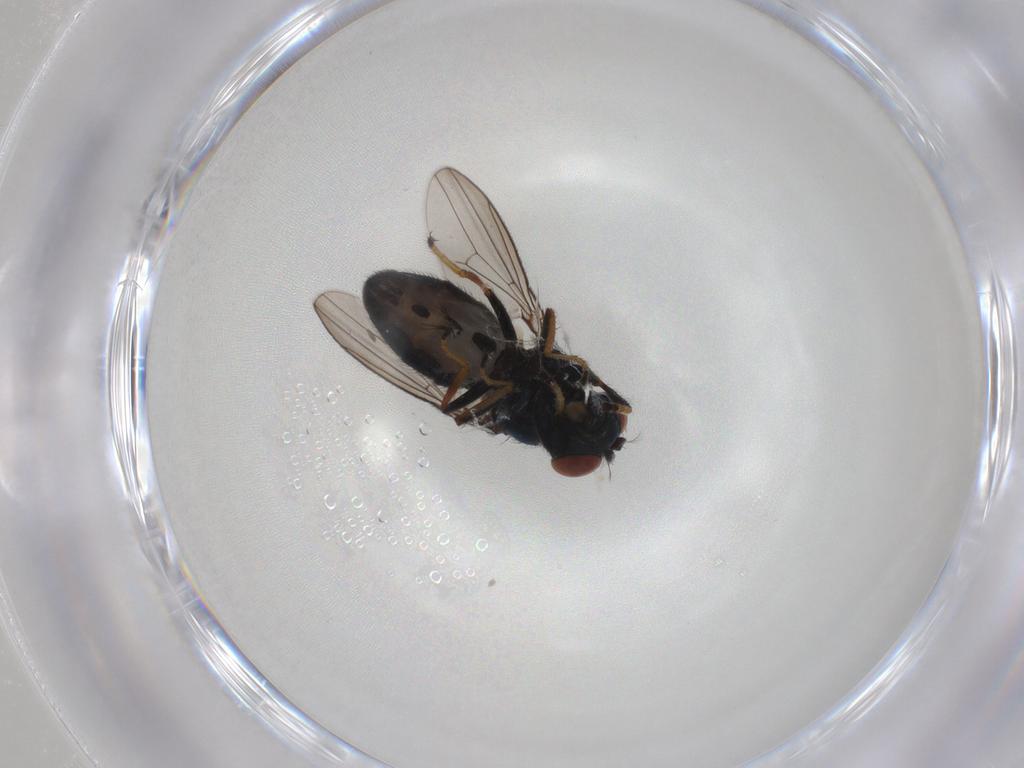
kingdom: Animalia
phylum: Arthropoda
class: Insecta
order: Diptera
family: Ephydridae
